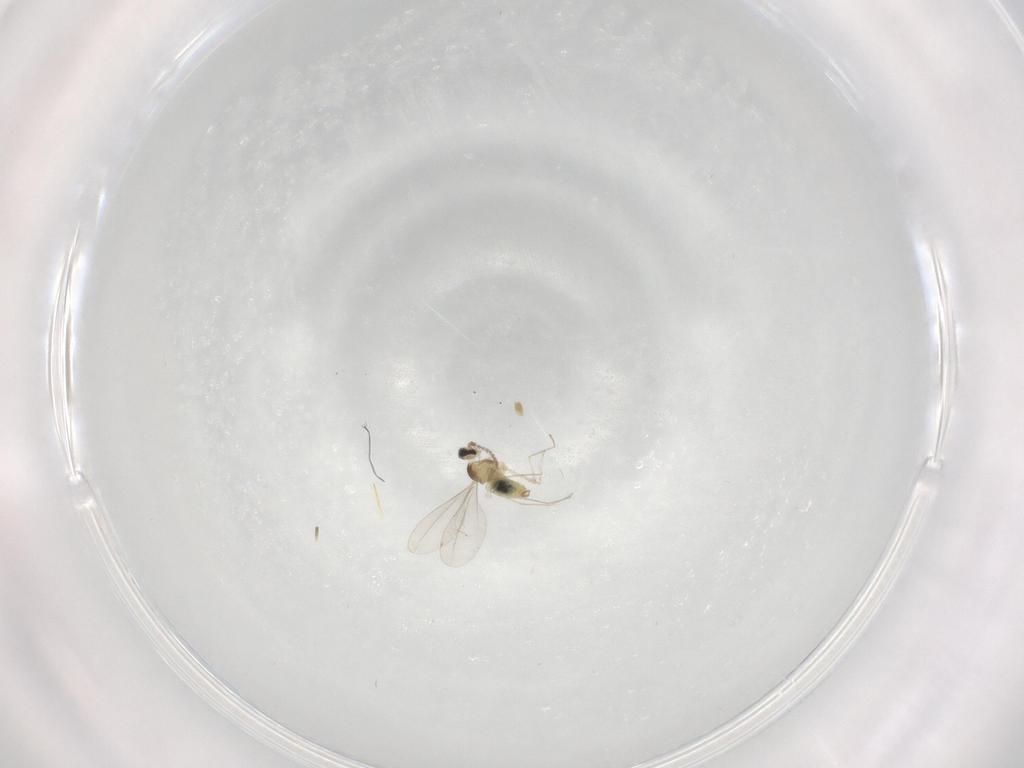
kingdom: Animalia
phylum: Arthropoda
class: Insecta
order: Diptera
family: Cecidomyiidae
